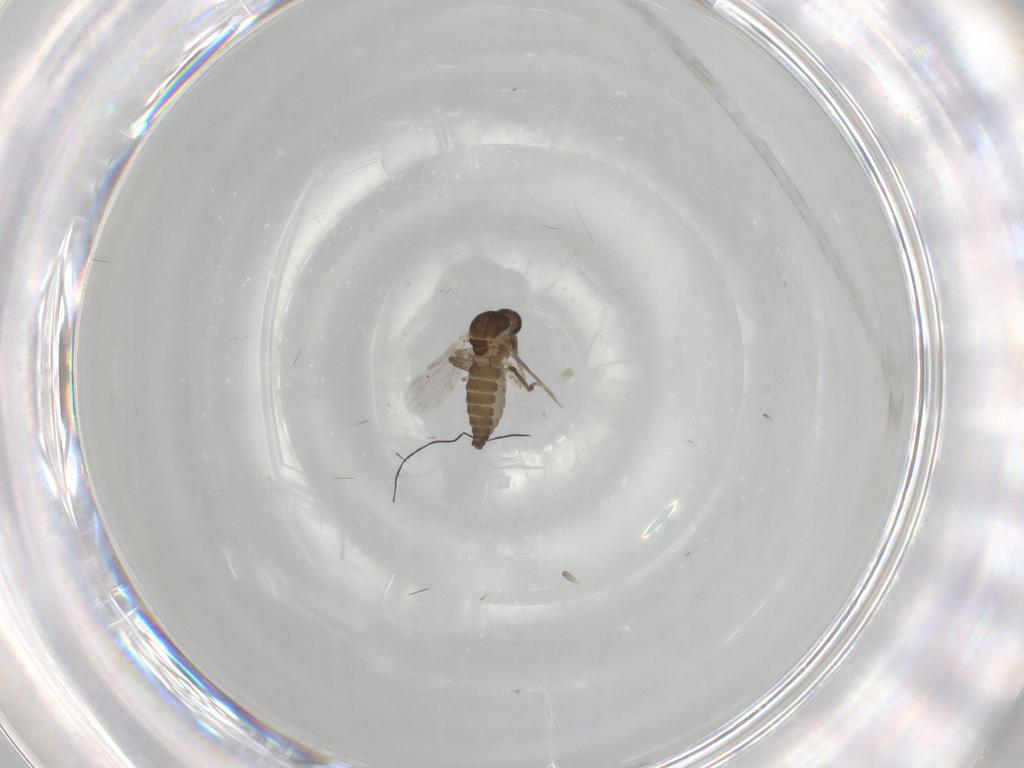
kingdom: Animalia
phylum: Arthropoda
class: Insecta
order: Diptera
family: Ceratopogonidae
